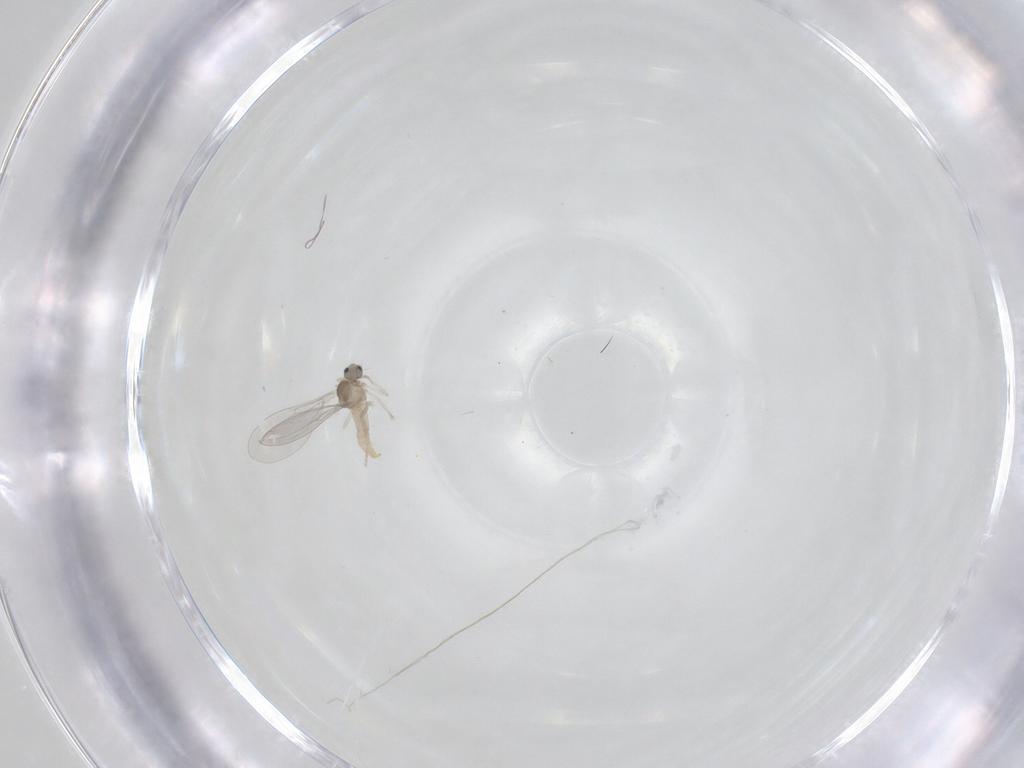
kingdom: Animalia
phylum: Arthropoda
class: Insecta
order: Diptera
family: Cecidomyiidae
